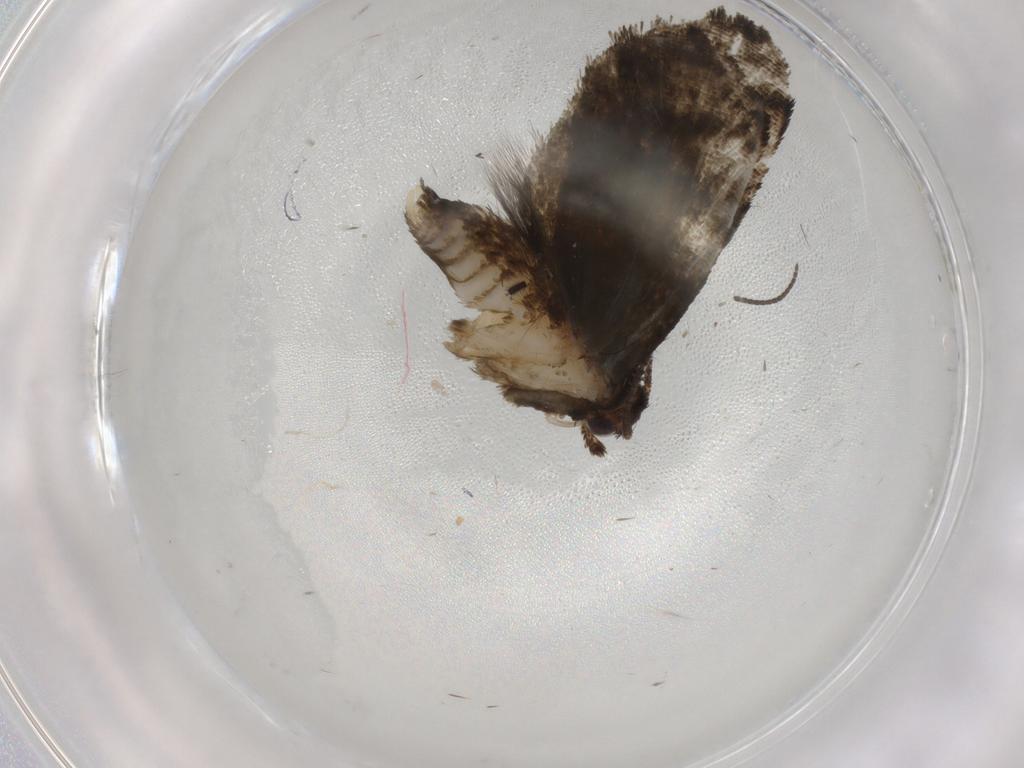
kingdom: Animalia
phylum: Arthropoda
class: Insecta
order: Lepidoptera
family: Tortricidae
